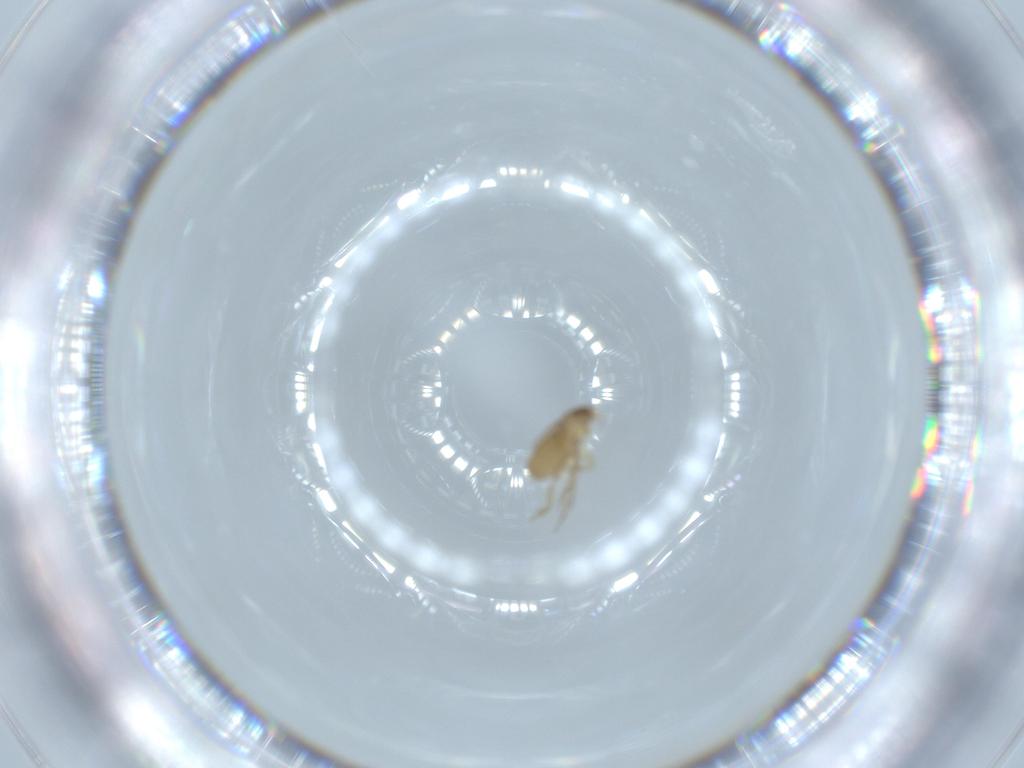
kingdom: Animalia
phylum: Arthropoda
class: Insecta
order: Diptera
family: Phoridae
